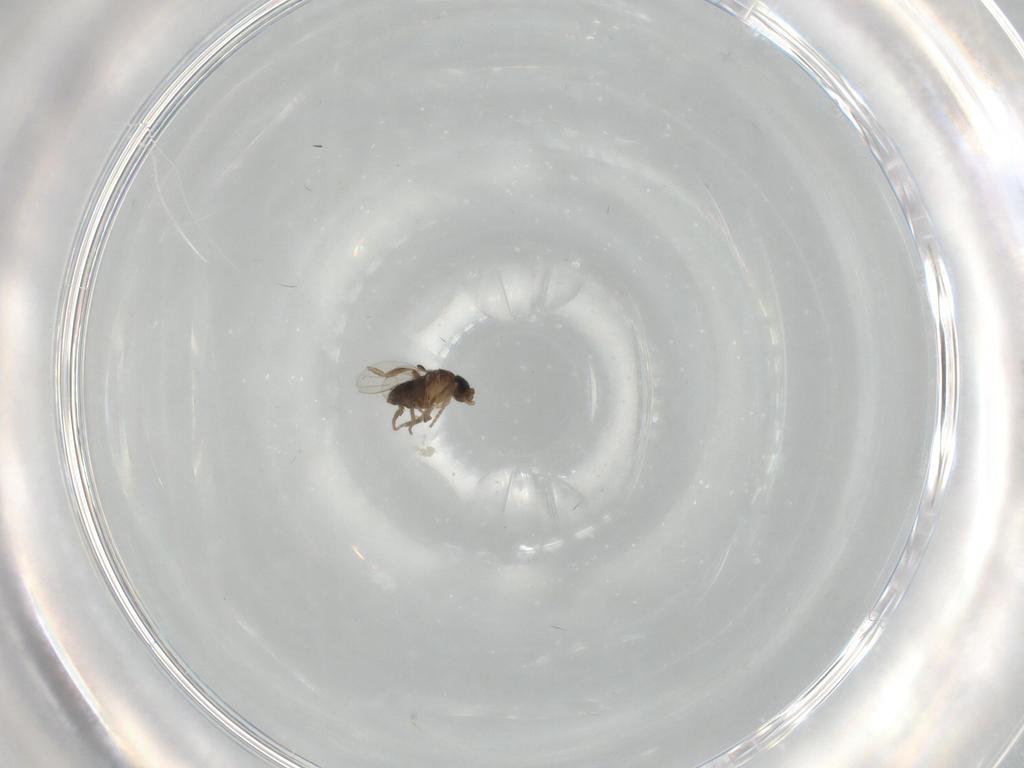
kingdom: Animalia
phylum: Arthropoda
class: Insecta
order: Diptera
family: Phoridae
